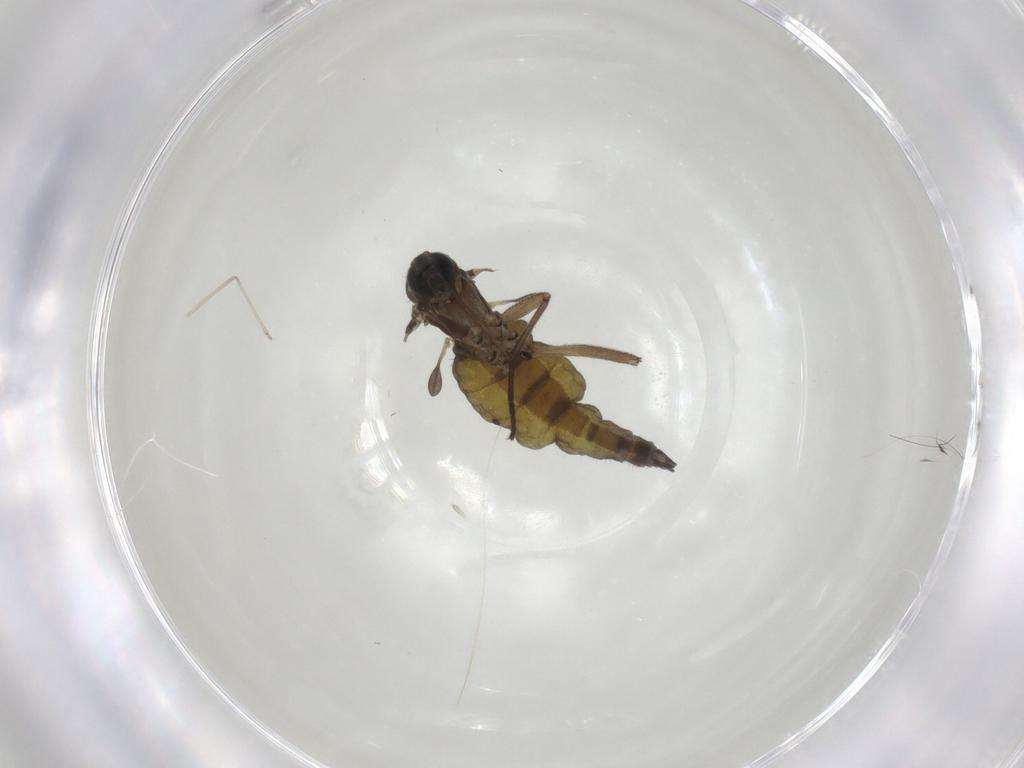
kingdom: Animalia
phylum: Arthropoda
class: Insecta
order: Diptera
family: Sciaridae
